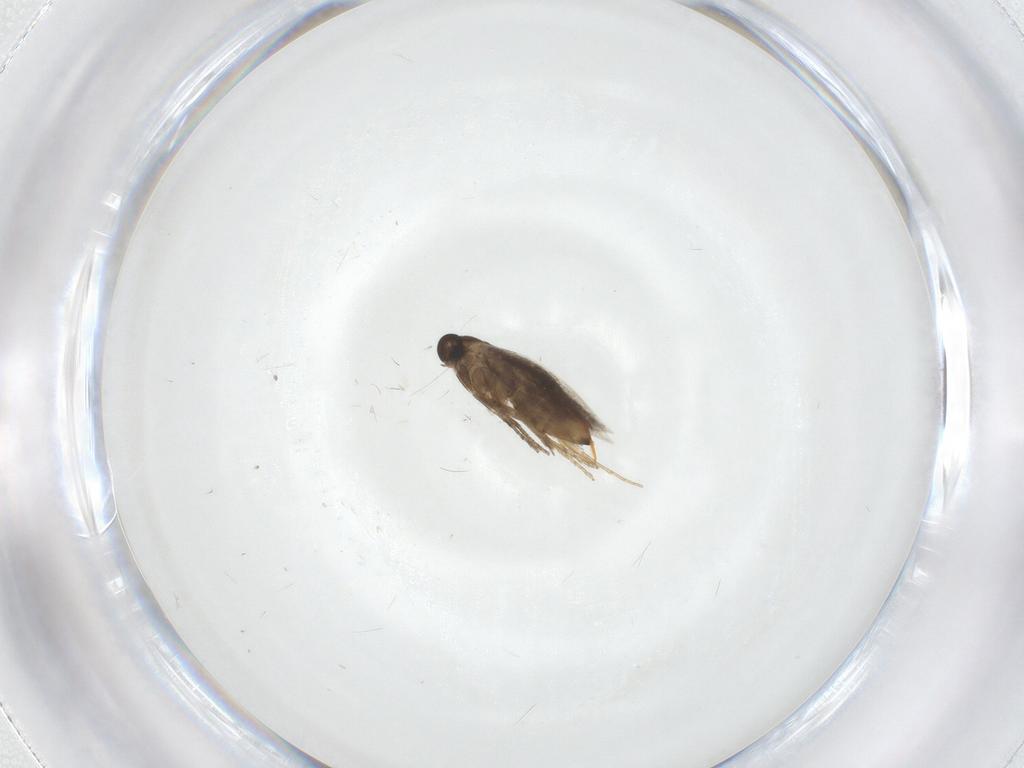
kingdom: Animalia
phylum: Arthropoda
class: Insecta
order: Lepidoptera
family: Heliozelidae
